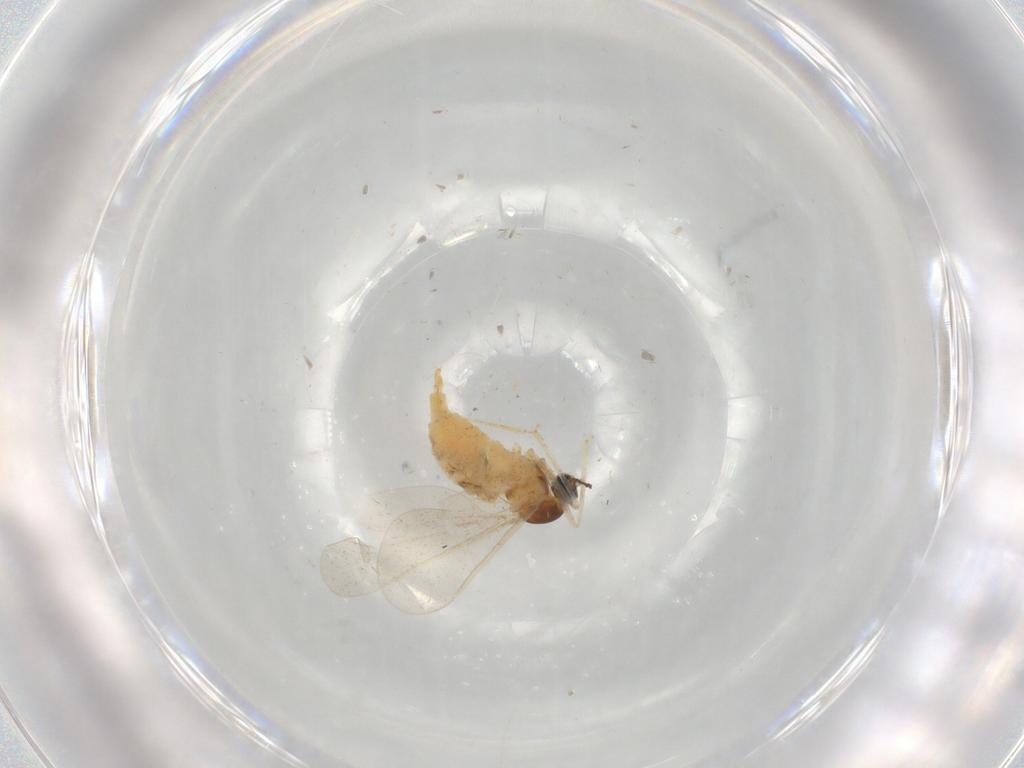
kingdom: Animalia
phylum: Arthropoda
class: Insecta
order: Diptera
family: Cecidomyiidae
